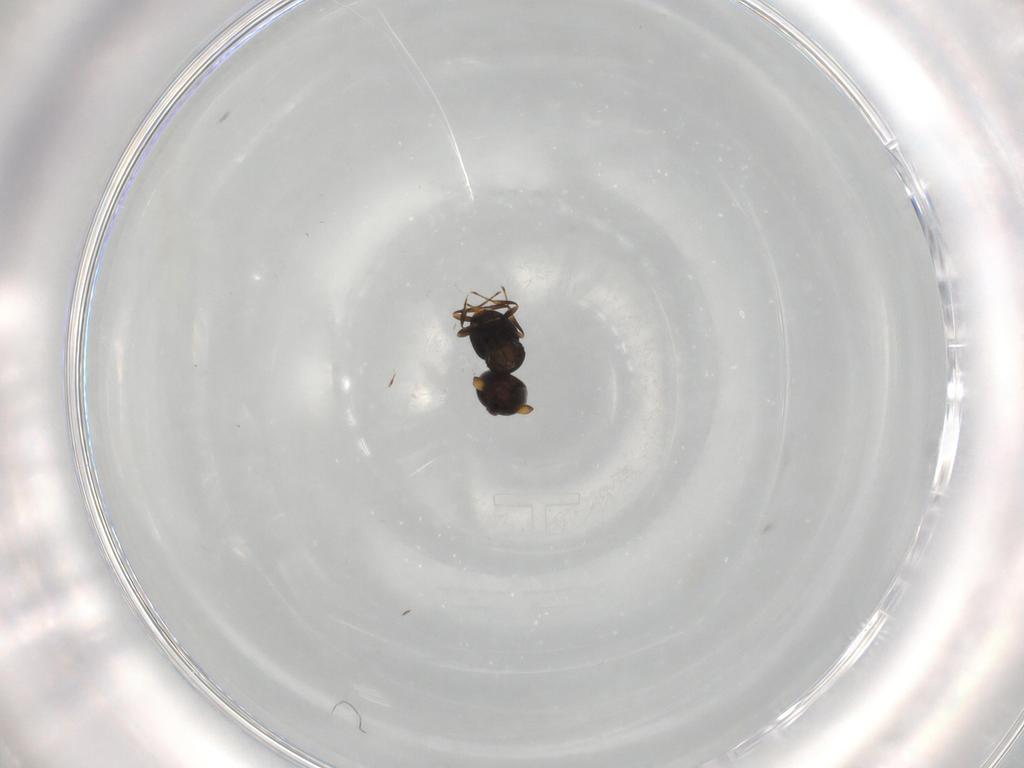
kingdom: Animalia
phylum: Arthropoda
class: Insecta
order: Hymenoptera
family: Scelionidae
